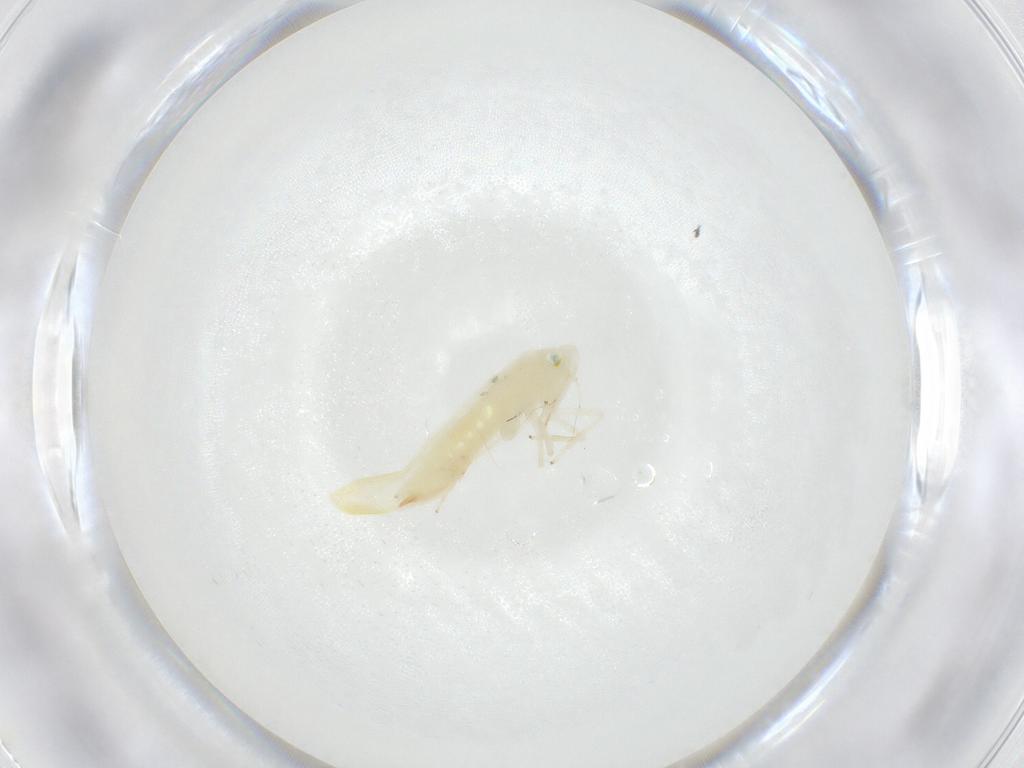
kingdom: Animalia
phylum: Arthropoda
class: Insecta
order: Hemiptera
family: Cicadellidae
